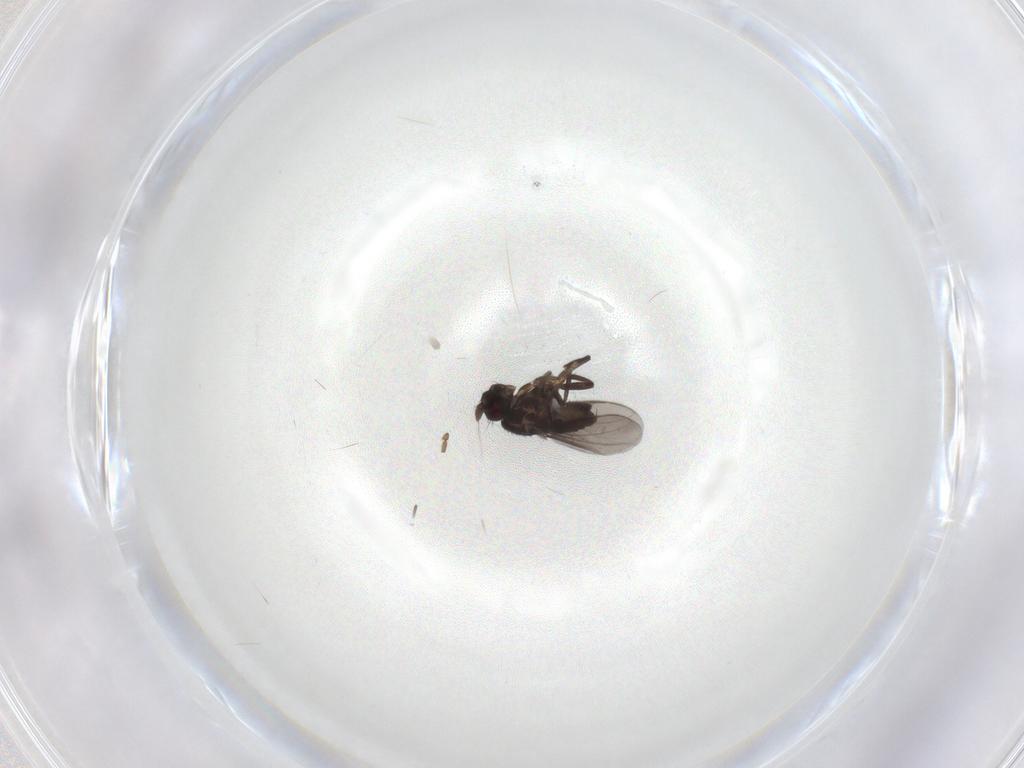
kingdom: Animalia
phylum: Arthropoda
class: Insecta
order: Diptera
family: Sphaeroceridae
